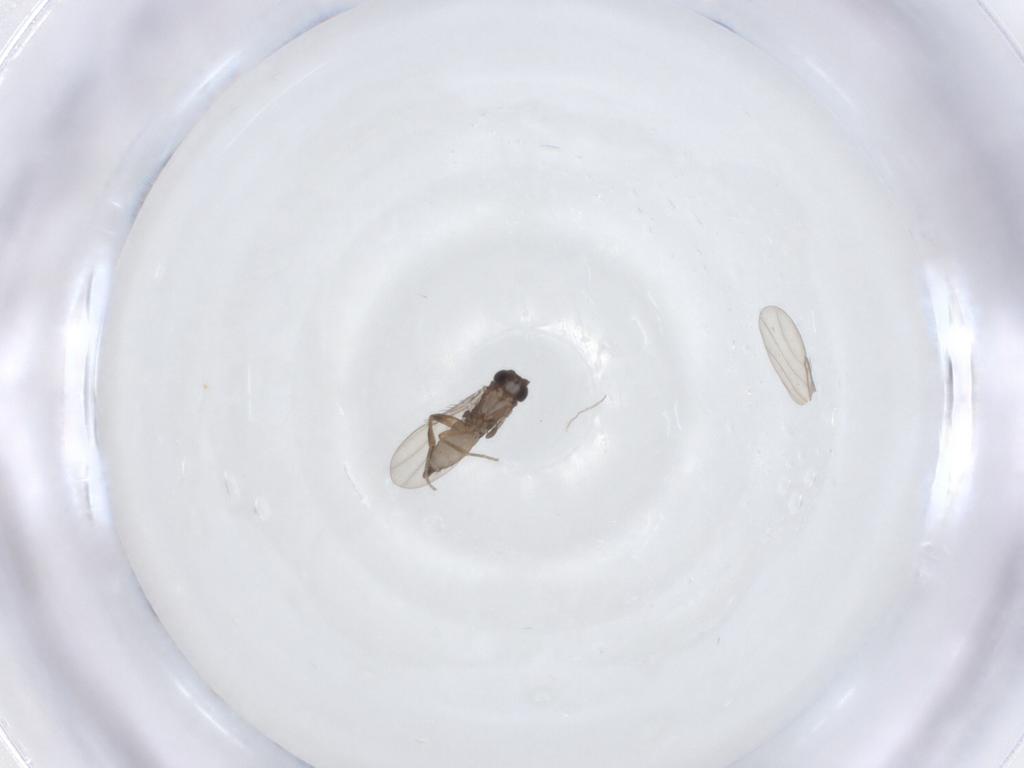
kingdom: Animalia
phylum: Arthropoda
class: Insecta
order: Diptera
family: Phoridae
